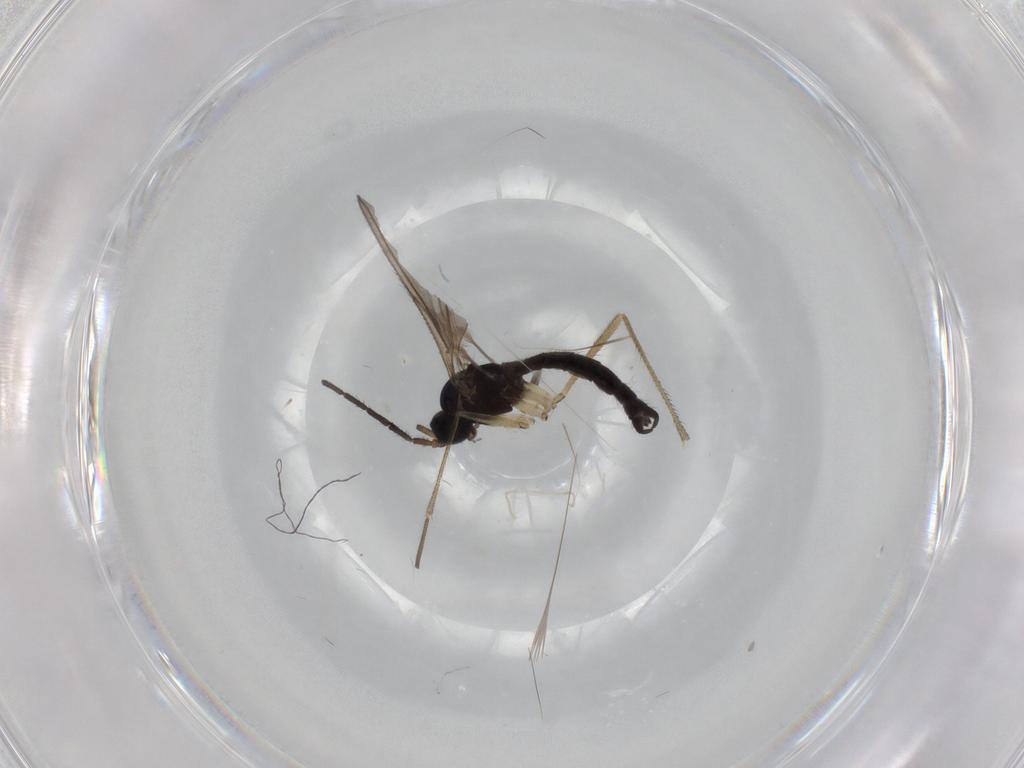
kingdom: Animalia
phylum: Arthropoda
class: Insecta
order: Diptera
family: Sciaridae
